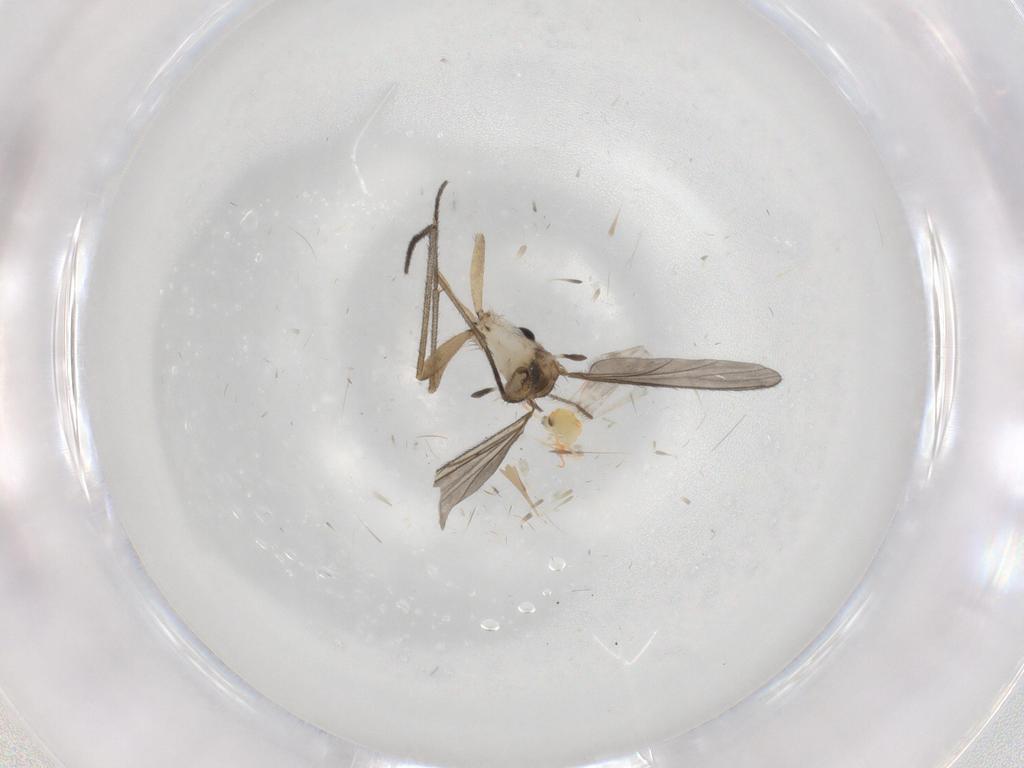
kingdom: Animalia
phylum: Arthropoda
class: Insecta
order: Diptera
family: Sciaridae
